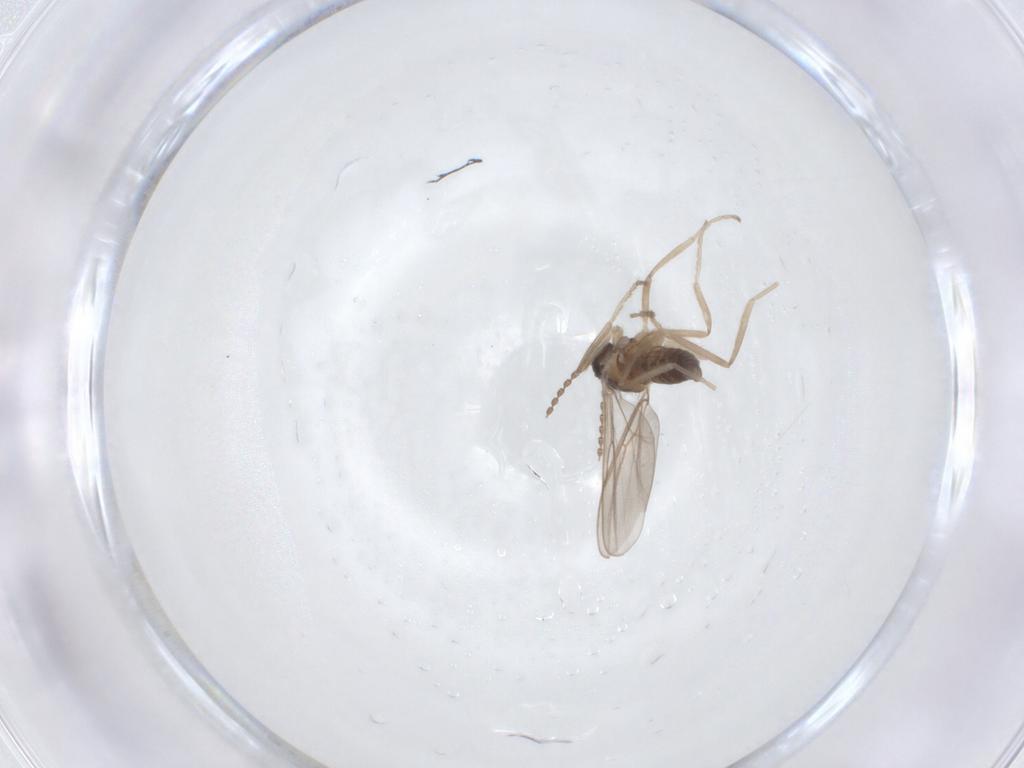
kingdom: Animalia
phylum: Arthropoda
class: Insecta
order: Diptera
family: Cecidomyiidae
